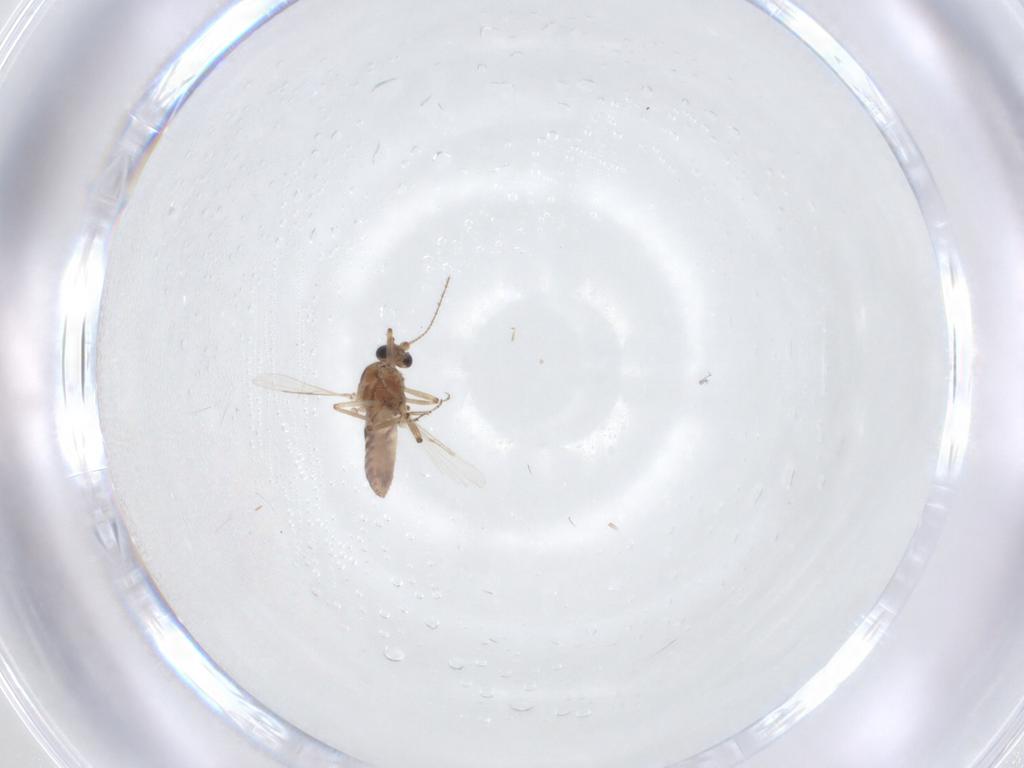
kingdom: Animalia
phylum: Arthropoda
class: Insecta
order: Diptera
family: Ceratopogonidae
